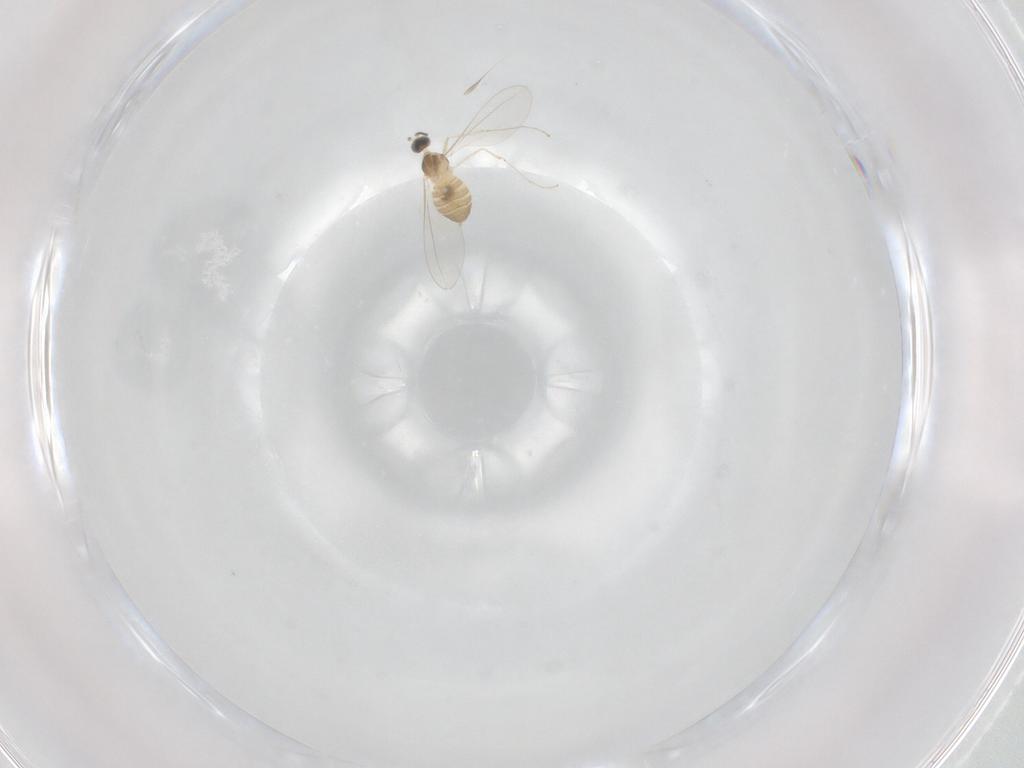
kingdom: Animalia
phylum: Arthropoda
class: Insecta
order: Diptera
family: Cecidomyiidae
